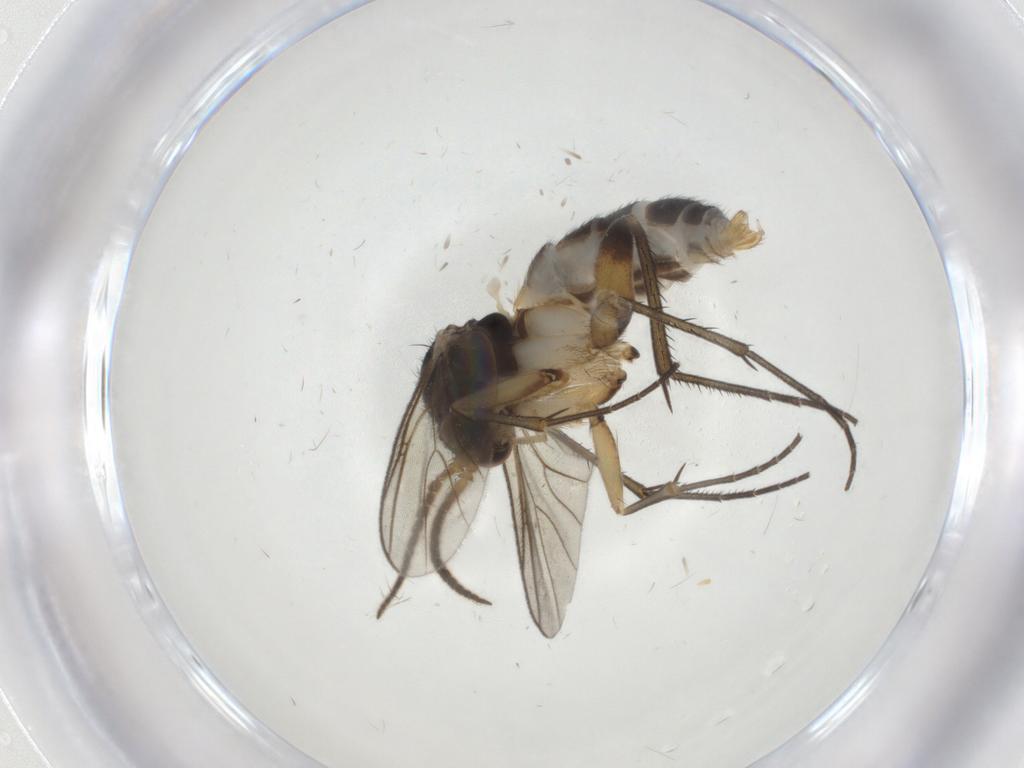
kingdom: Animalia
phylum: Arthropoda
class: Insecta
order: Diptera
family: Mycetophilidae
